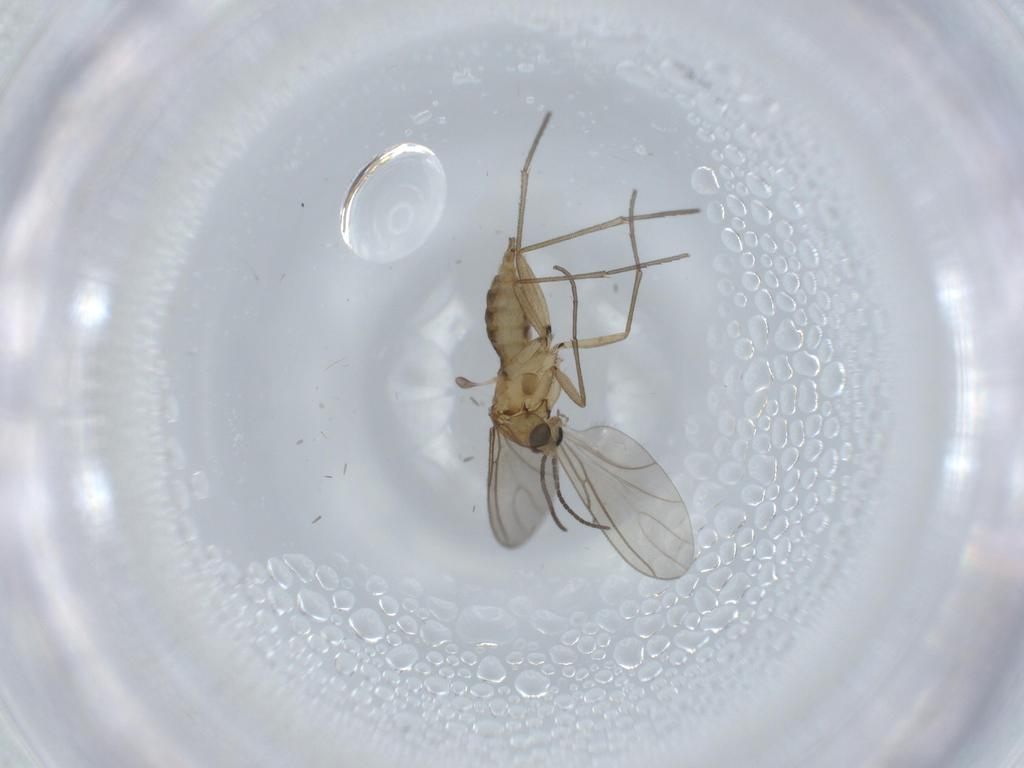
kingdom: Animalia
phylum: Arthropoda
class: Insecta
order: Diptera
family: Sciaridae
